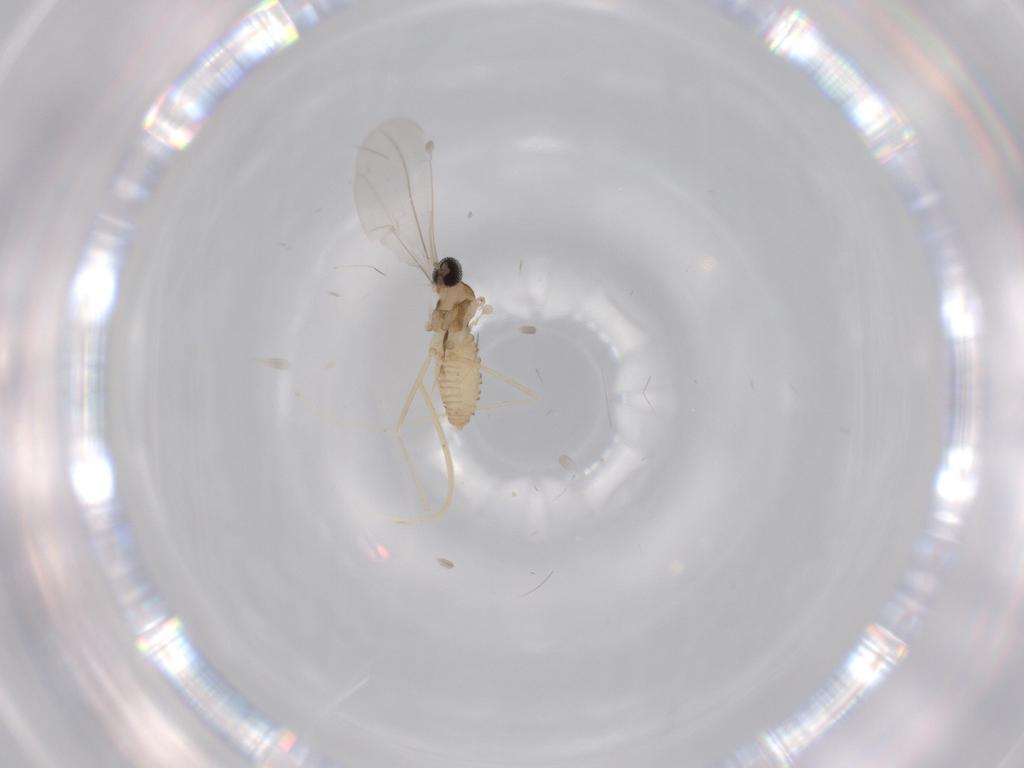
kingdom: Animalia
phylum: Arthropoda
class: Insecta
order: Diptera
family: Cecidomyiidae
